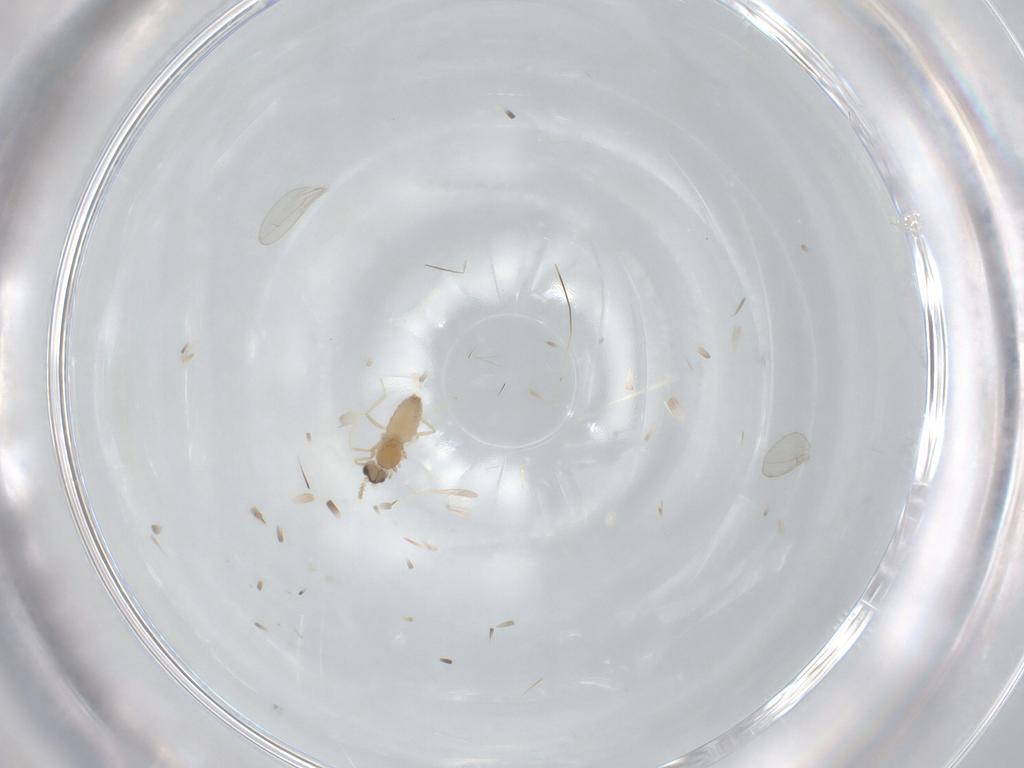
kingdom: Animalia
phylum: Arthropoda
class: Insecta
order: Diptera
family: Cecidomyiidae
